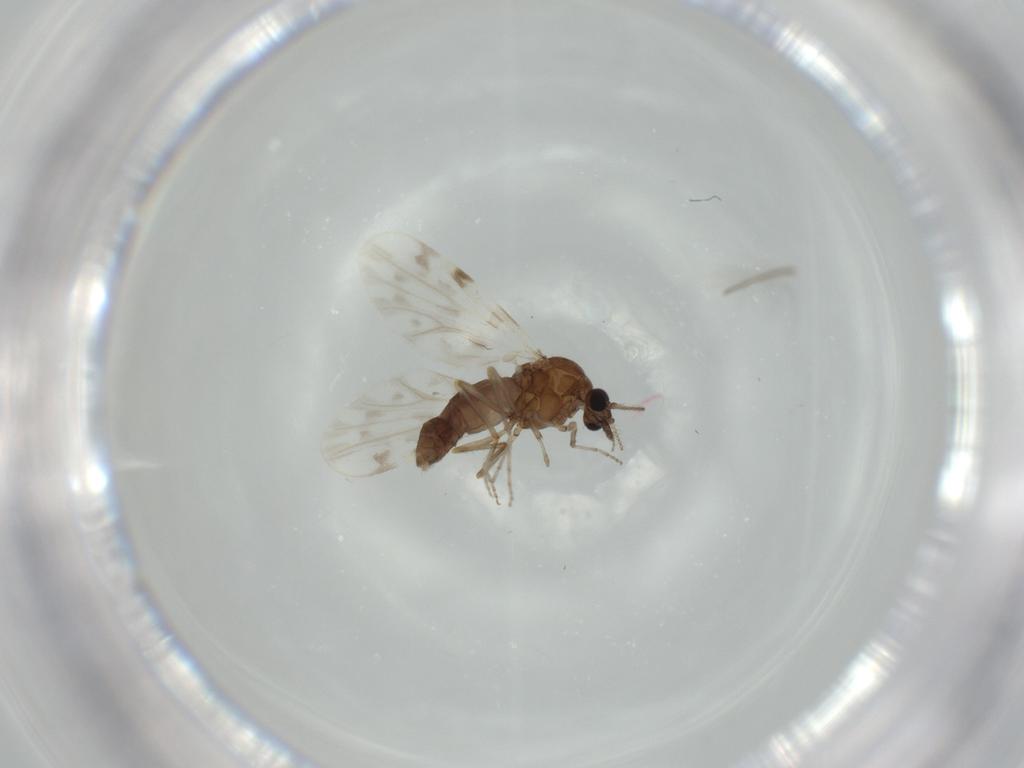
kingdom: Animalia
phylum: Arthropoda
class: Insecta
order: Diptera
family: Ceratopogonidae
